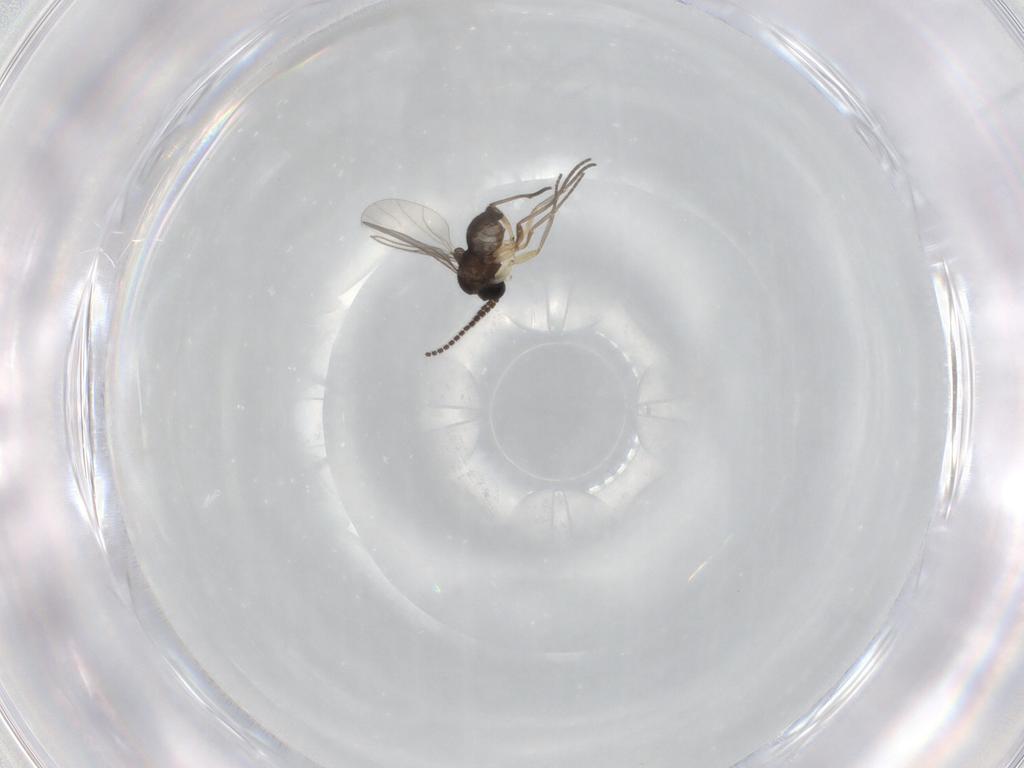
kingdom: Animalia
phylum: Arthropoda
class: Insecta
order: Diptera
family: Sciaridae
